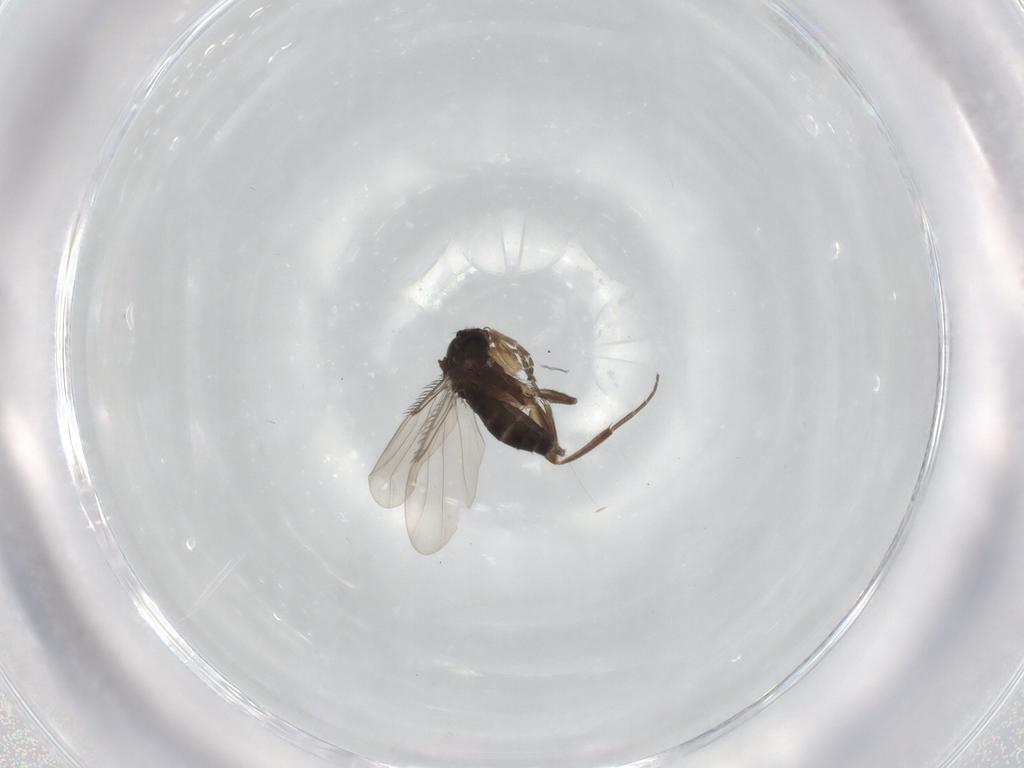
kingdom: Animalia
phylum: Arthropoda
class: Insecta
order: Diptera
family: Phoridae
